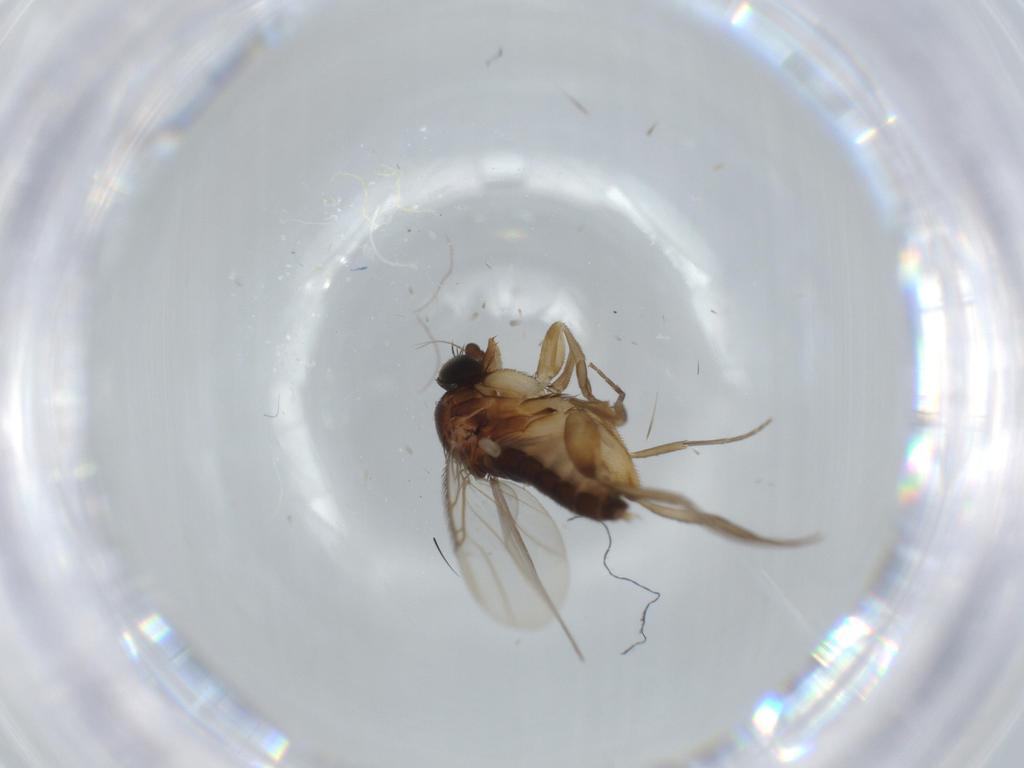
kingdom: Animalia
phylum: Arthropoda
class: Insecta
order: Diptera
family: Phoridae
